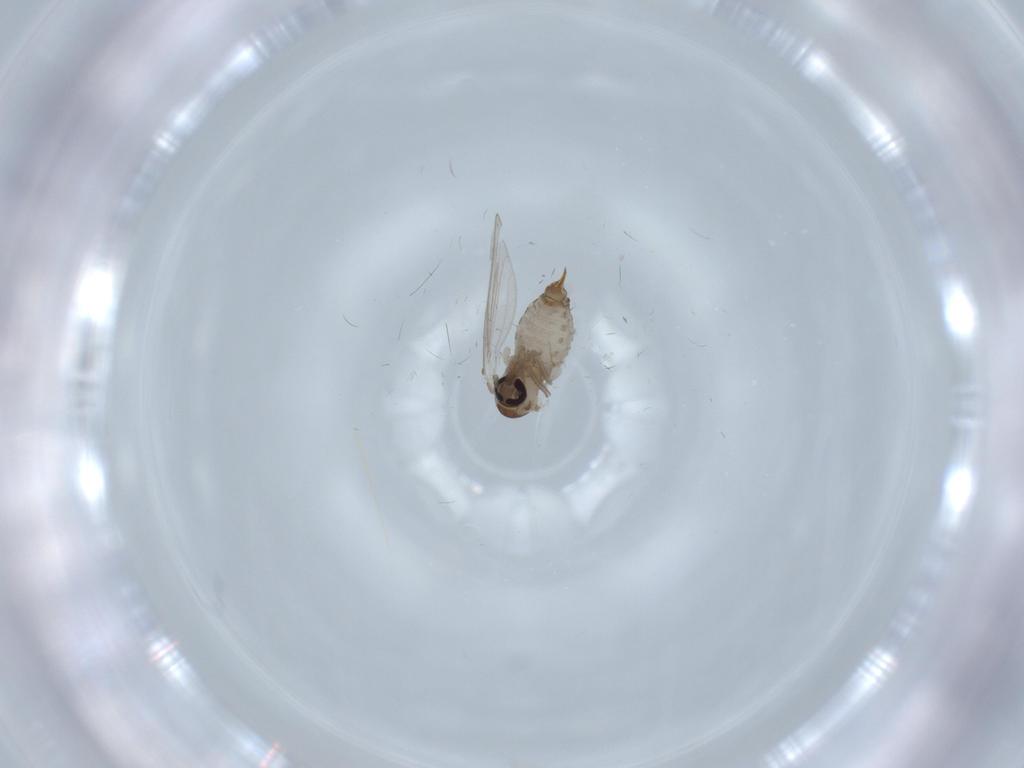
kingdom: Animalia
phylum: Arthropoda
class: Insecta
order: Diptera
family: Psychodidae
